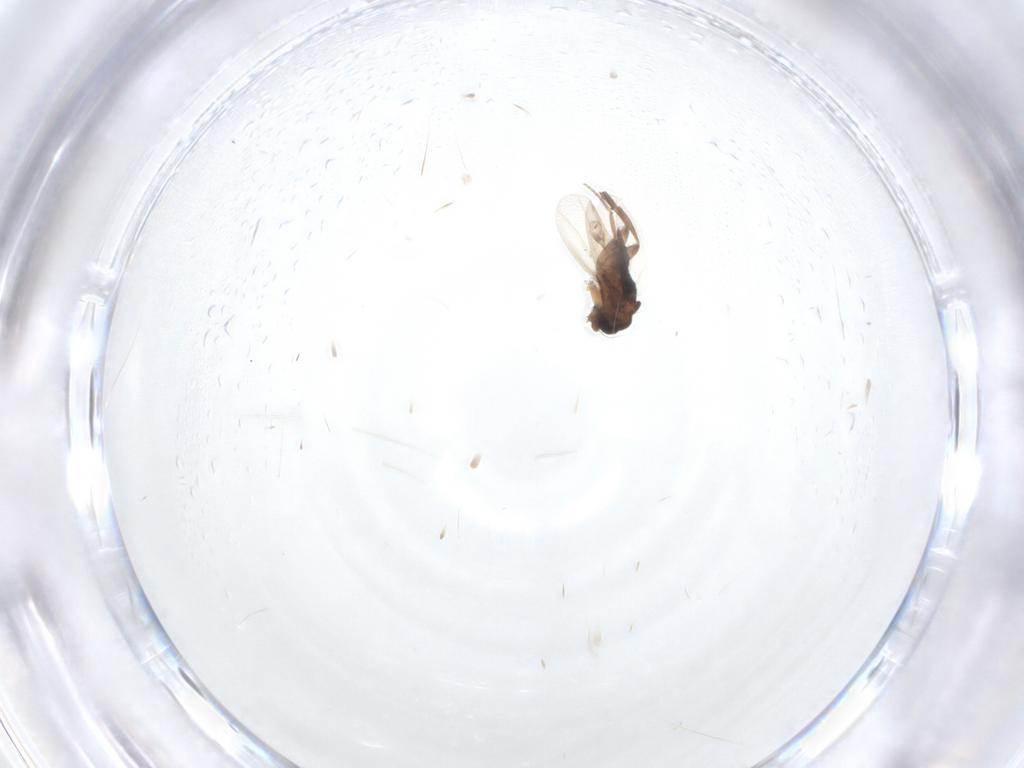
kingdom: Animalia
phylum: Arthropoda
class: Insecta
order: Diptera
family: Phoridae
